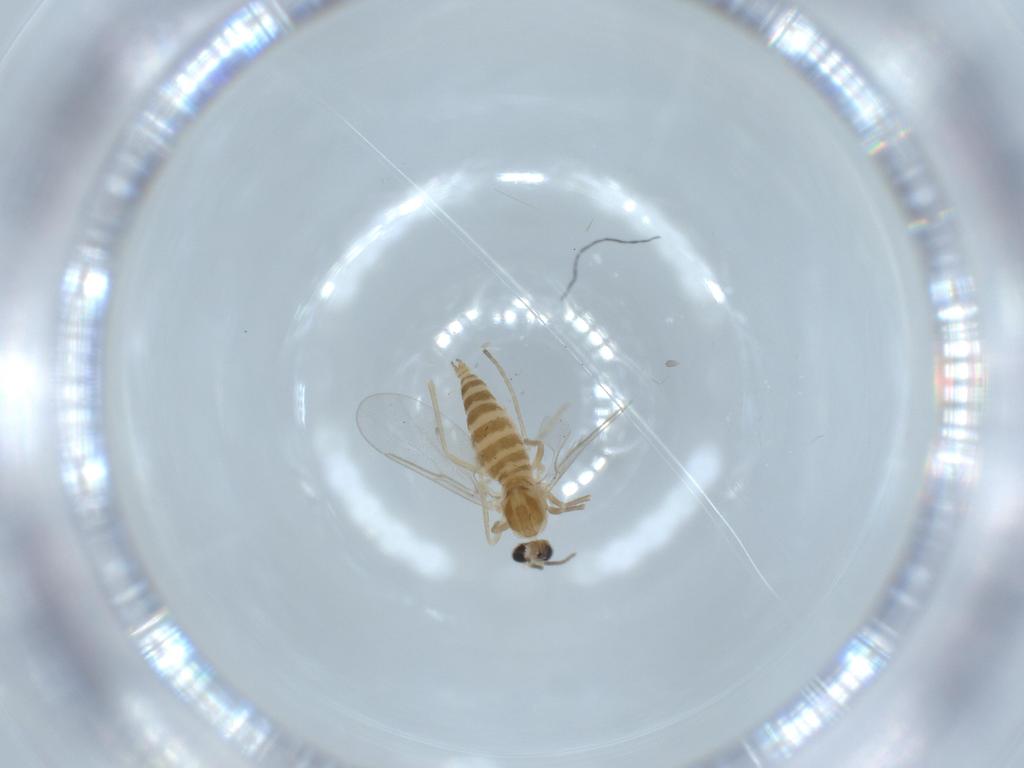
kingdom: Animalia
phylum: Arthropoda
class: Insecta
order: Diptera
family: Cecidomyiidae
